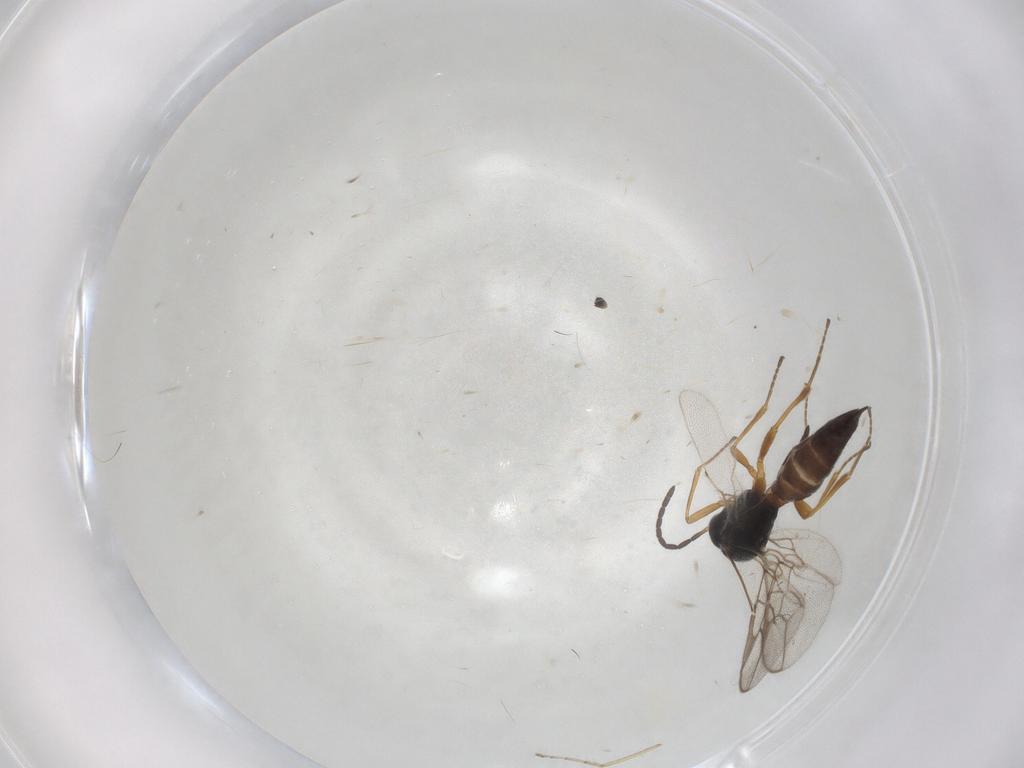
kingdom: Animalia
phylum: Arthropoda
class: Insecta
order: Hymenoptera
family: Braconidae
